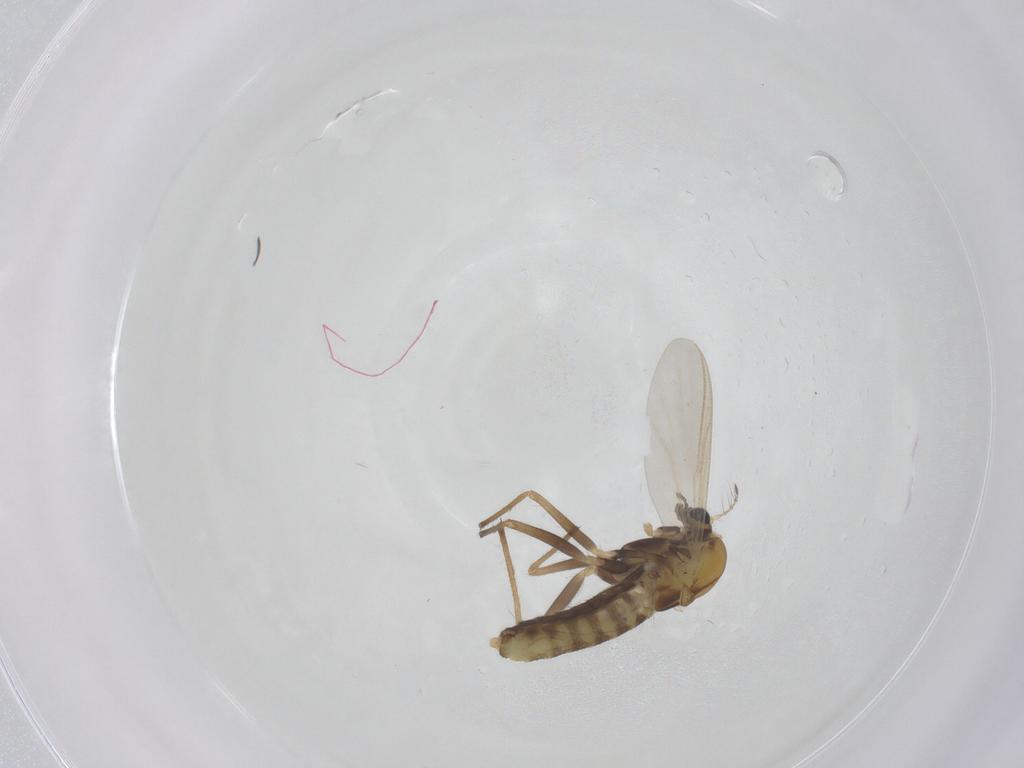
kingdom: Animalia
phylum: Arthropoda
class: Insecta
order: Diptera
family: Chironomidae
